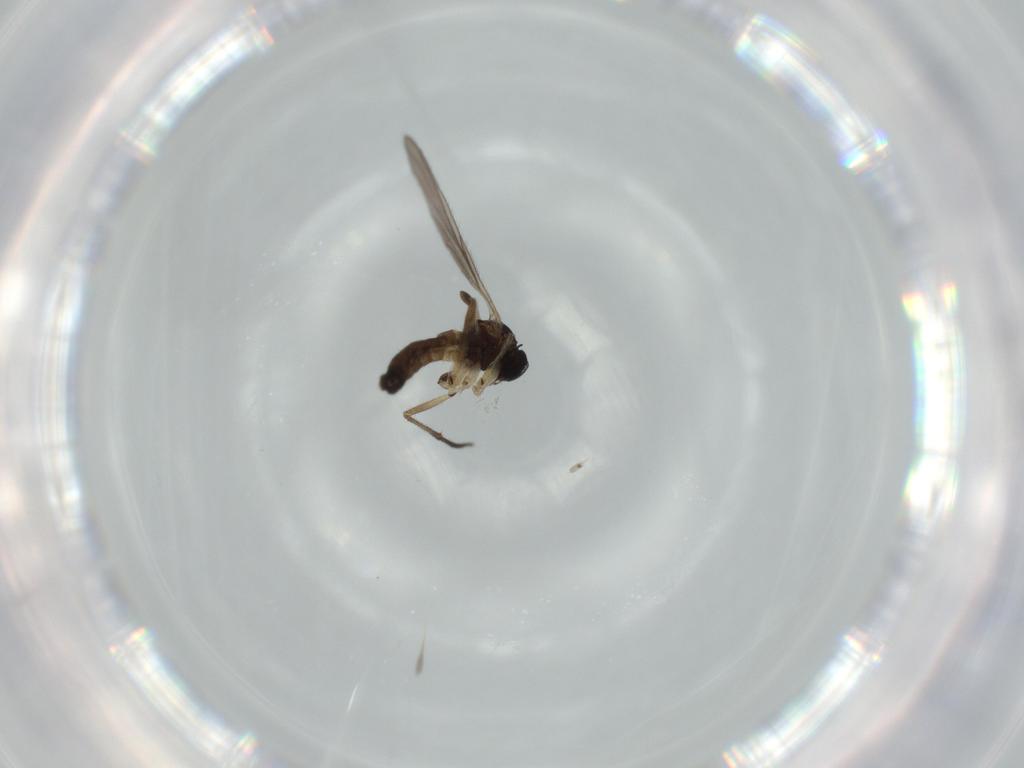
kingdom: Animalia
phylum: Arthropoda
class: Insecta
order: Diptera
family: Sciaridae
